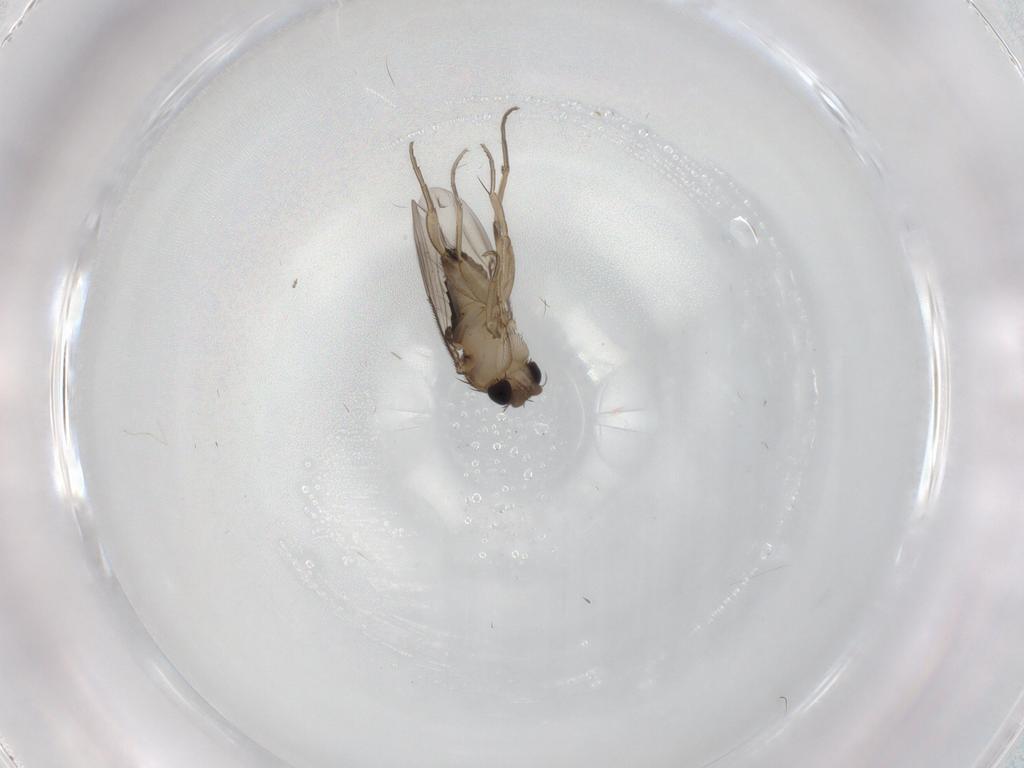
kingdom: Animalia
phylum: Arthropoda
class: Insecta
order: Diptera
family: Phoridae
